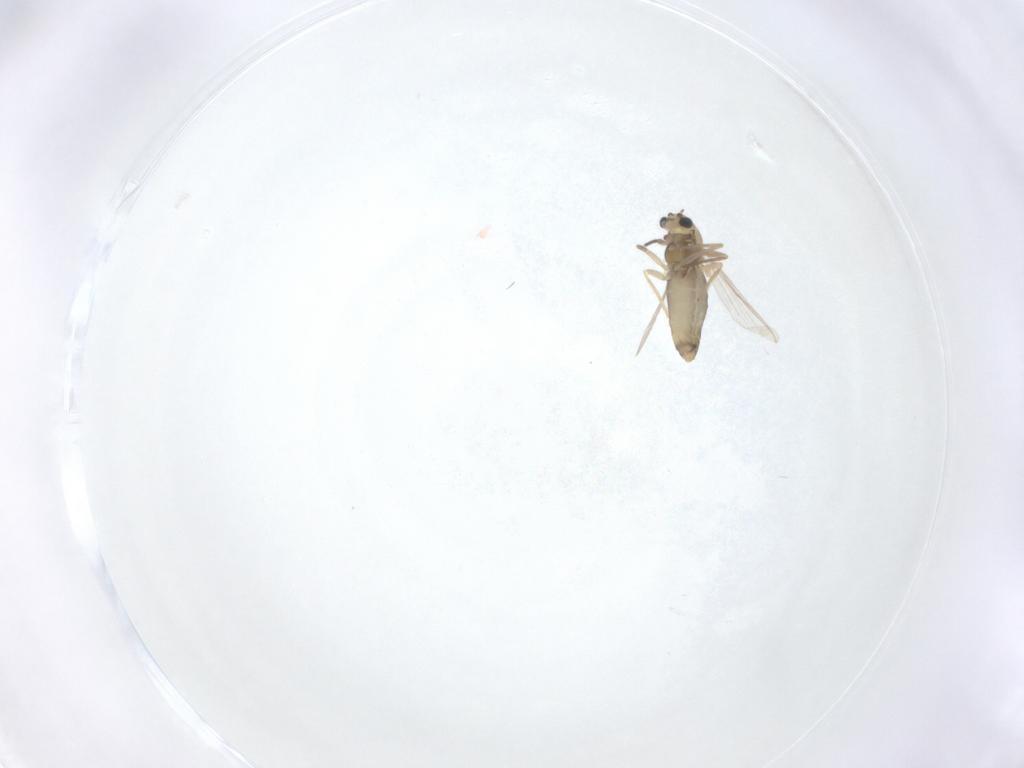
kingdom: Animalia
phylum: Arthropoda
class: Insecta
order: Diptera
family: Chironomidae
